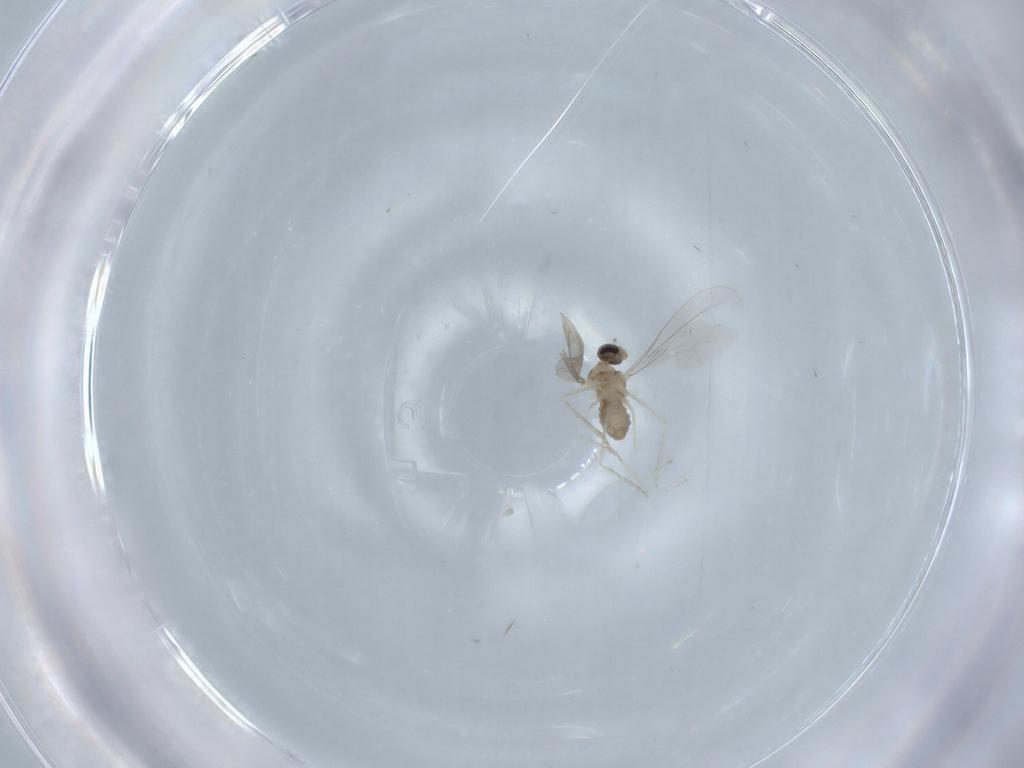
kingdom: Animalia
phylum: Arthropoda
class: Insecta
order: Diptera
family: Cecidomyiidae
